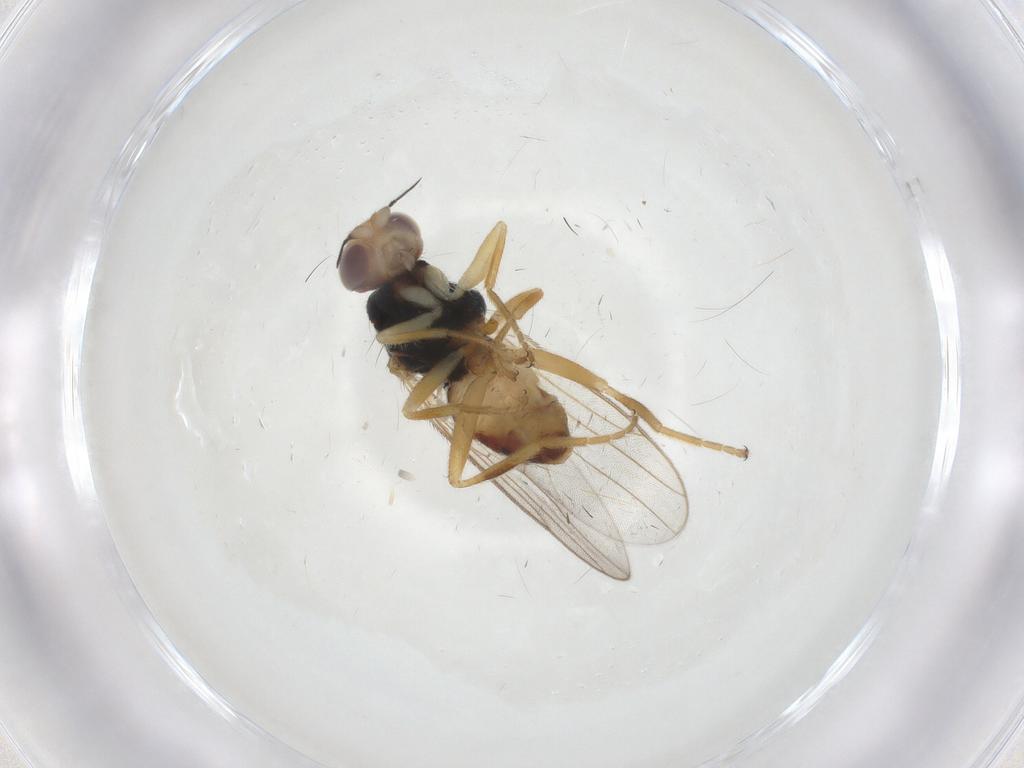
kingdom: Animalia
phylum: Arthropoda
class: Insecta
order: Diptera
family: Chloropidae
